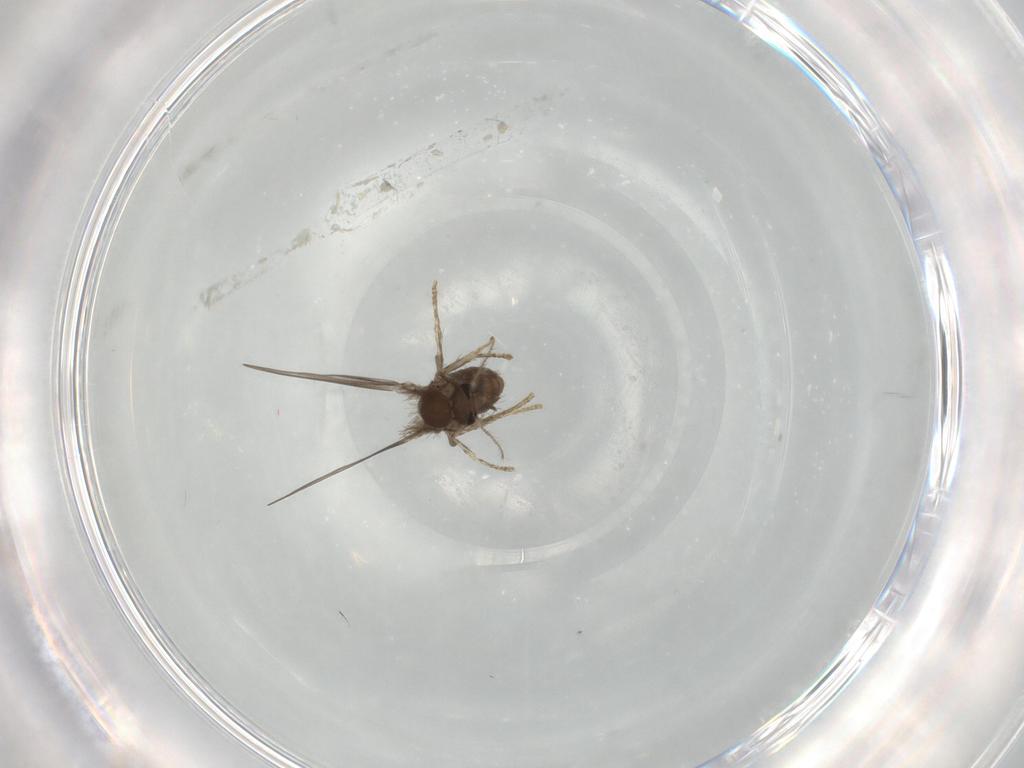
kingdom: Animalia
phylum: Arthropoda
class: Insecta
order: Diptera
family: Psychodidae
